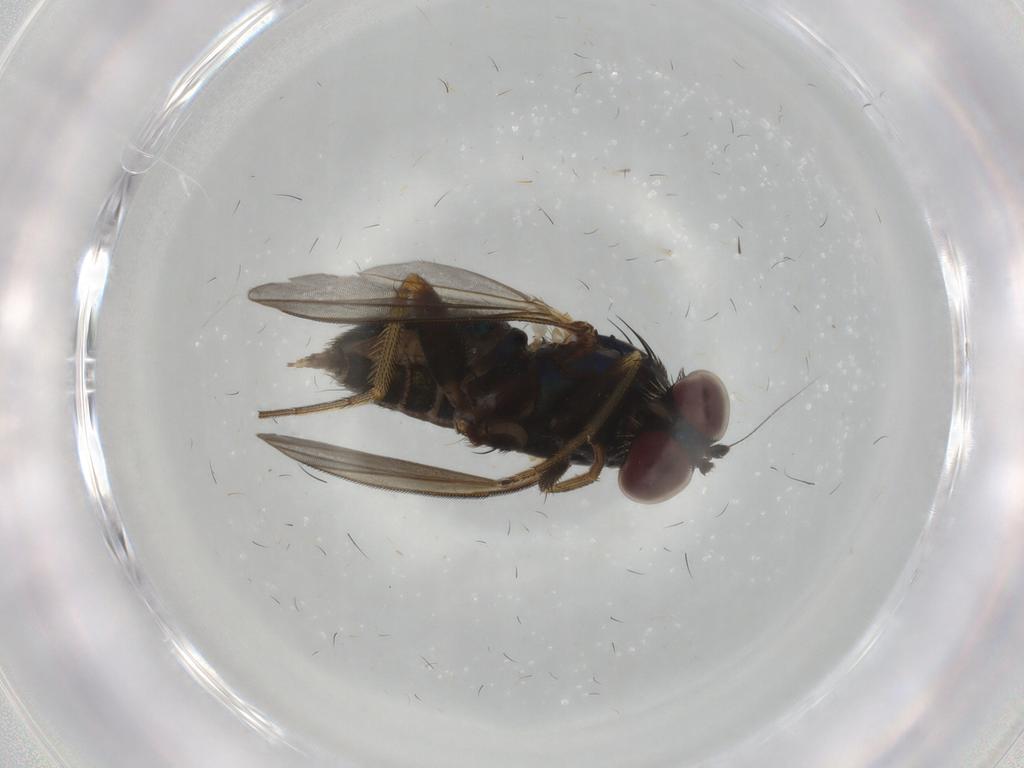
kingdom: Animalia
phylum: Arthropoda
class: Insecta
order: Diptera
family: Dolichopodidae
